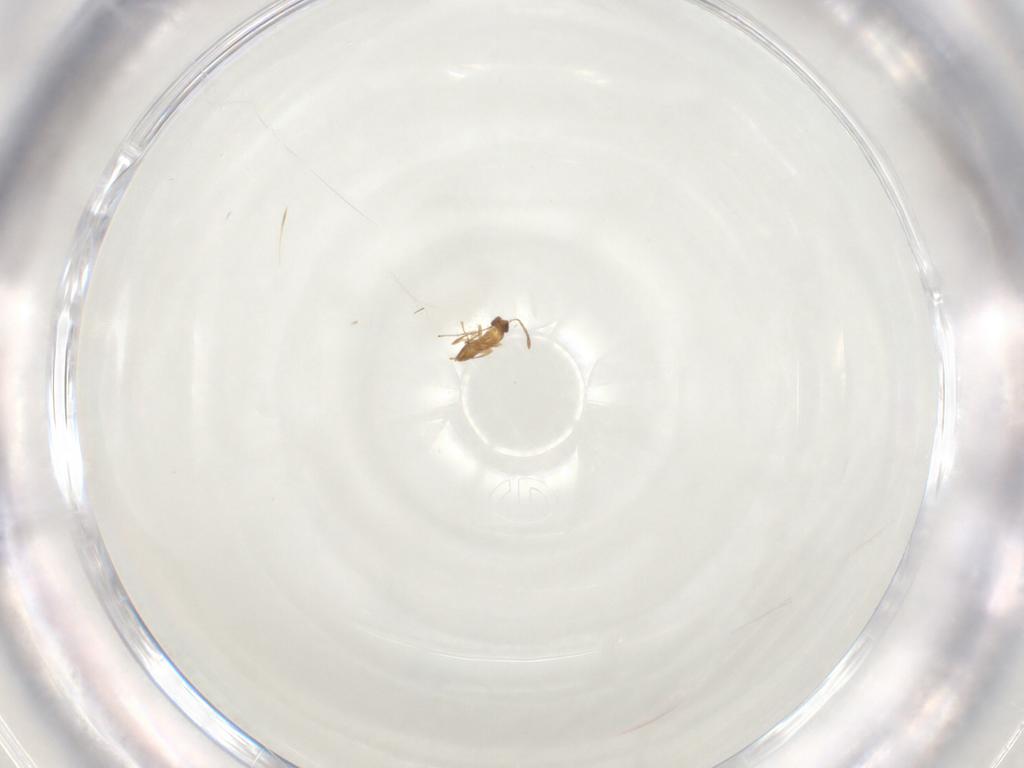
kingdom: Animalia
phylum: Arthropoda
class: Insecta
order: Hymenoptera
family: Mymaridae
